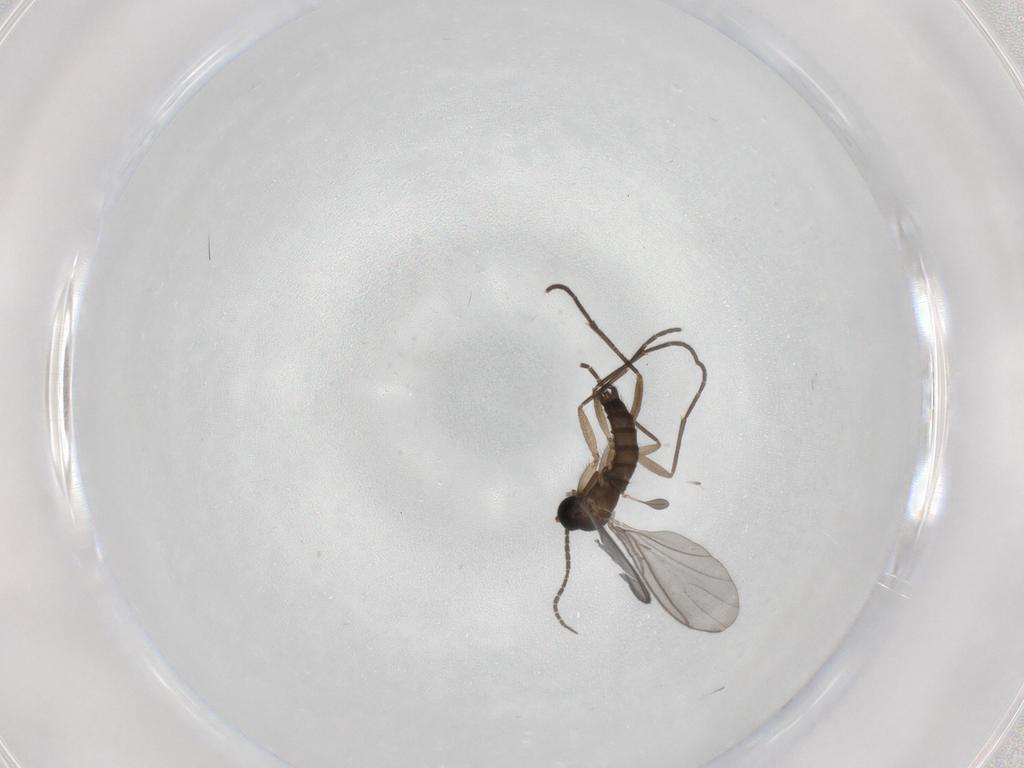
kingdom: Animalia
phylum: Arthropoda
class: Insecta
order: Diptera
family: Sciaridae
